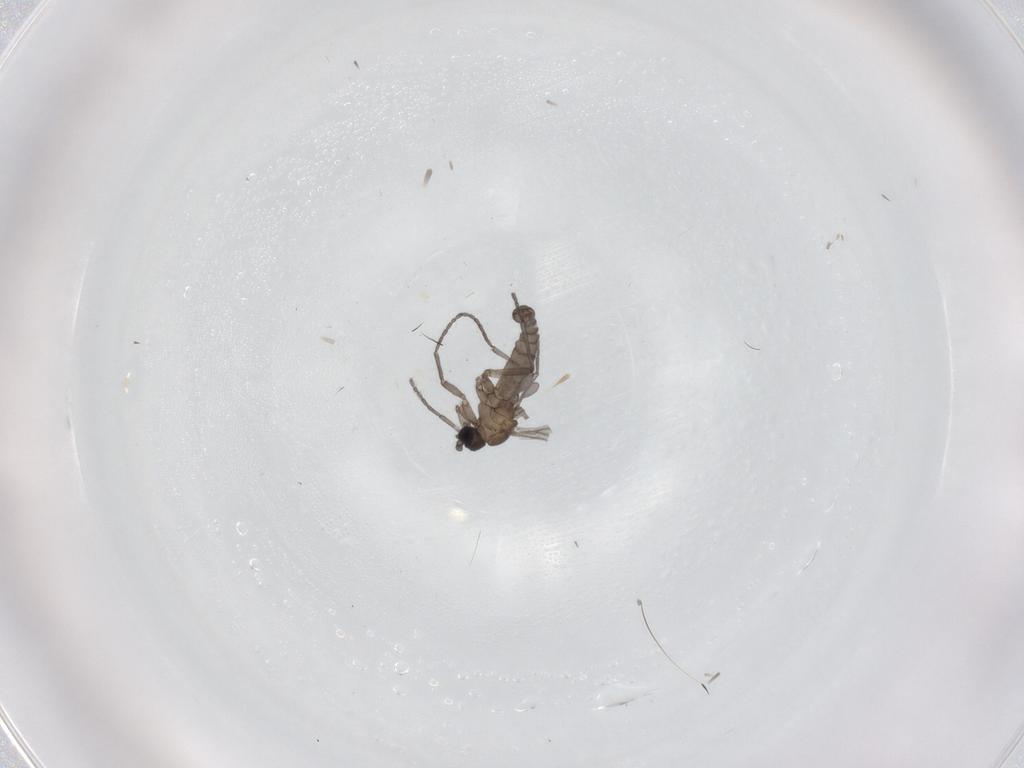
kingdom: Animalia
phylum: Arthropoda
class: Insecta
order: Diptera
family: Sciaridae
